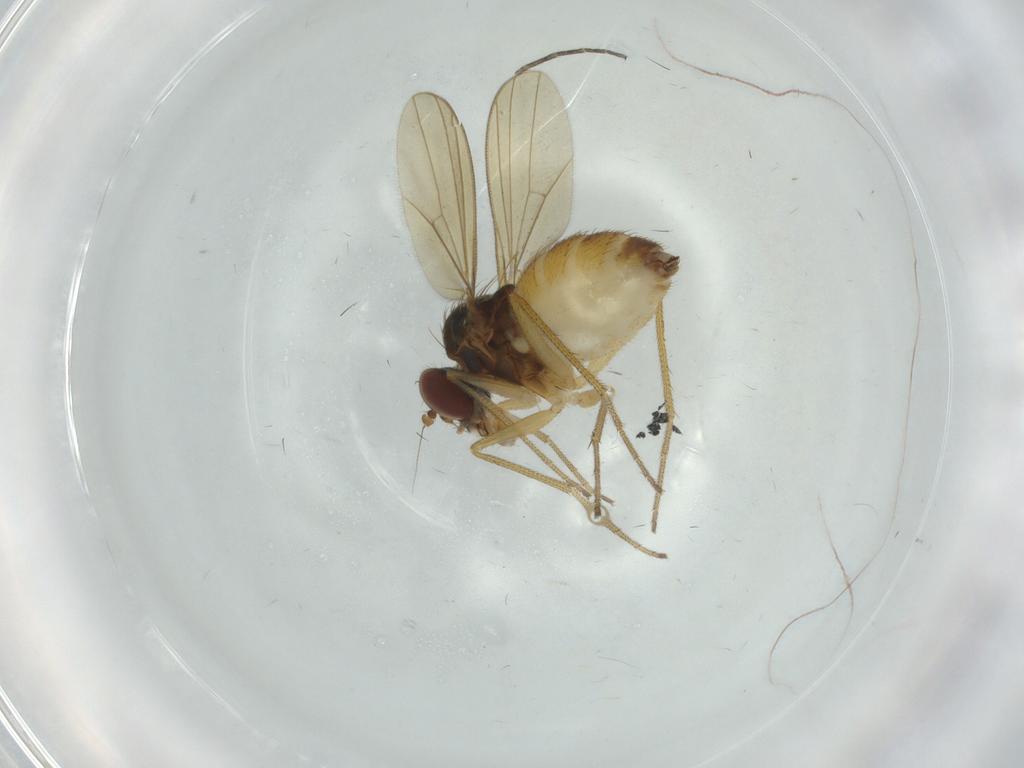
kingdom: Animalia
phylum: Arthropoda
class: Insecta
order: Diptera
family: Dolichopodidae
